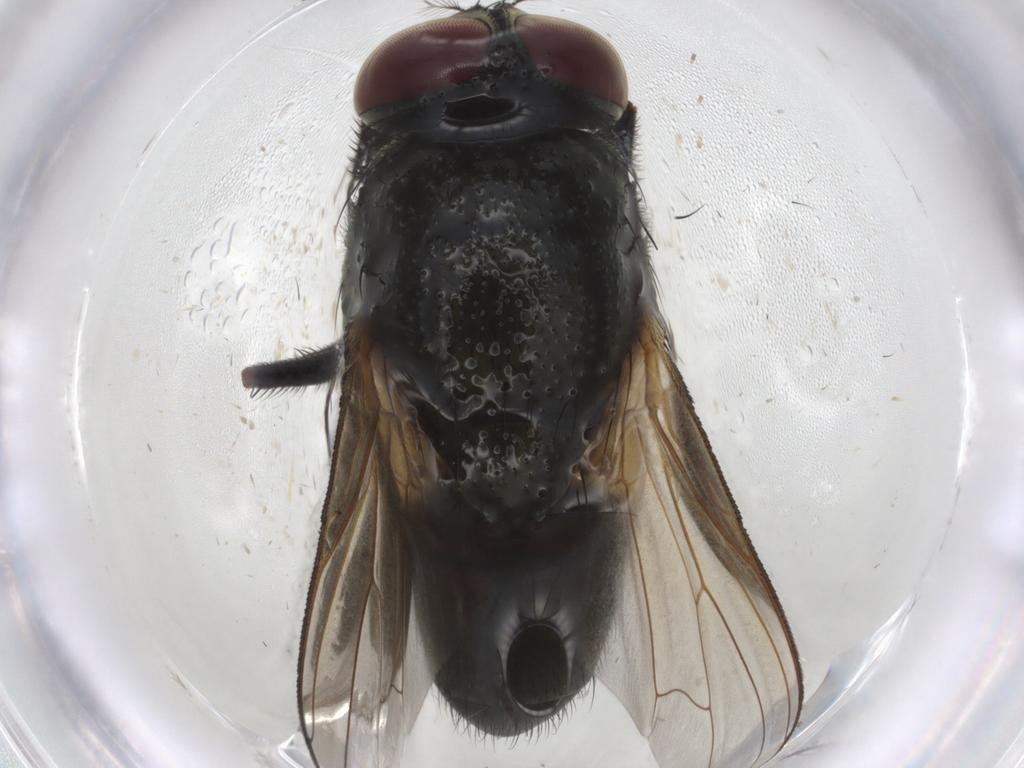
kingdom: Animalia
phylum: Arthropoda
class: Insecta
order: Diptera
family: Muscidae
